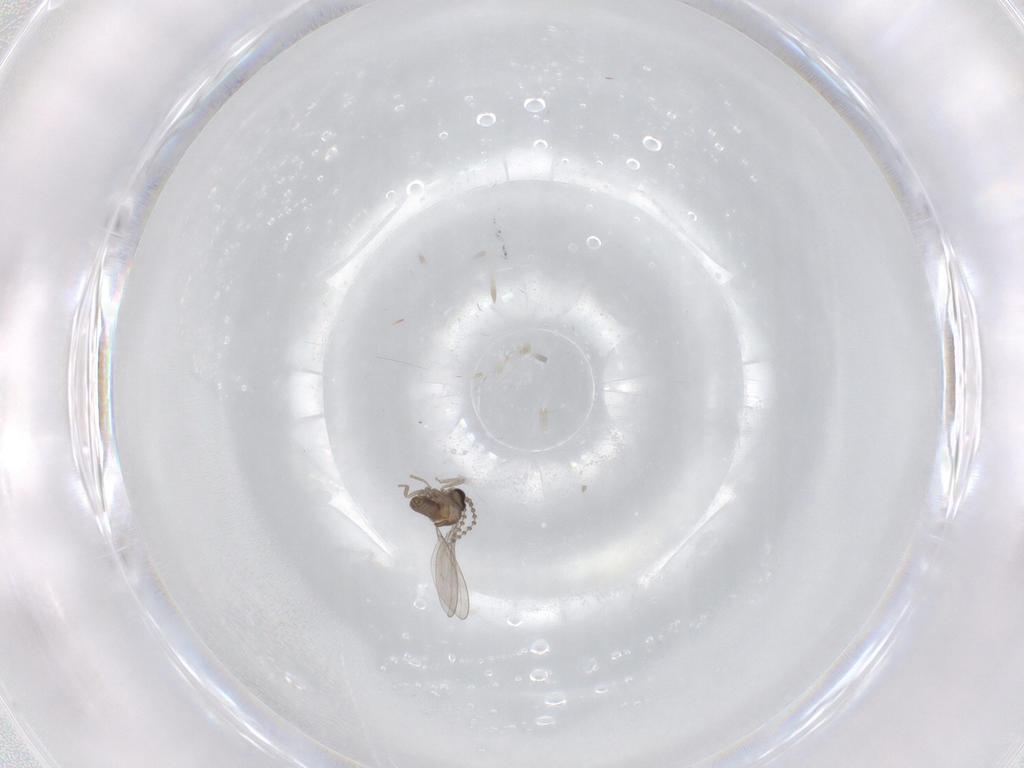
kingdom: Animalia
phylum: Arthropoda
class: Insecta
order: Diptera
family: Cecidomyiidae
